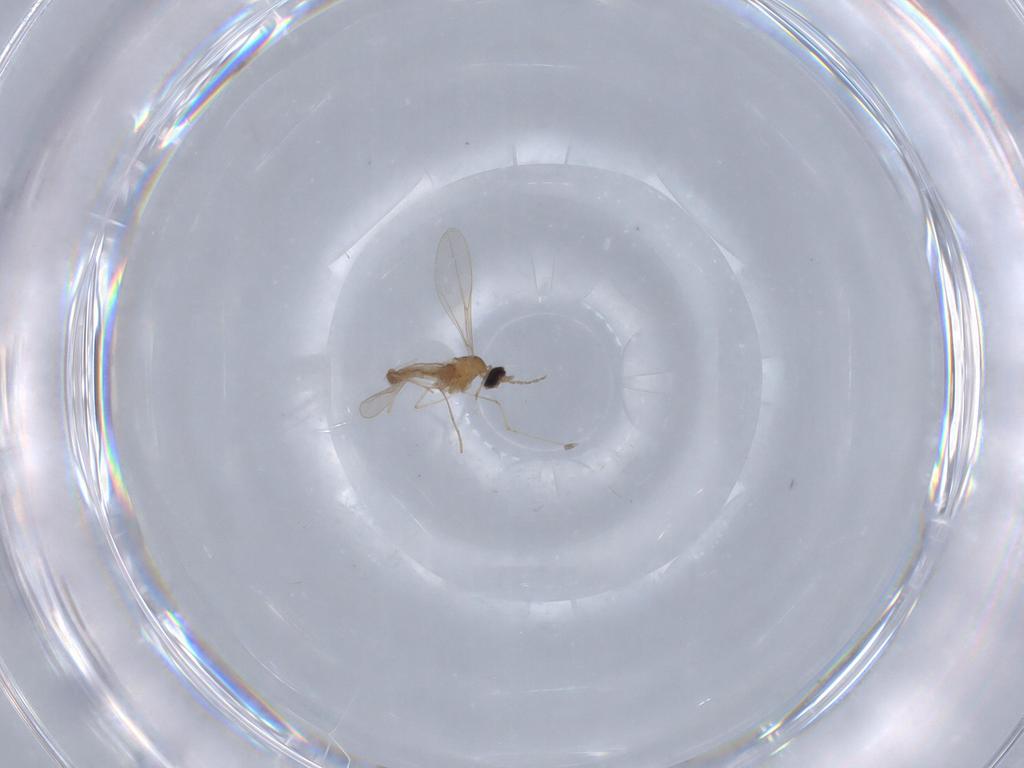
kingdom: Animalia
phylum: Arthropoda
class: Insecta
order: Diptera
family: Cecidomyiidae
